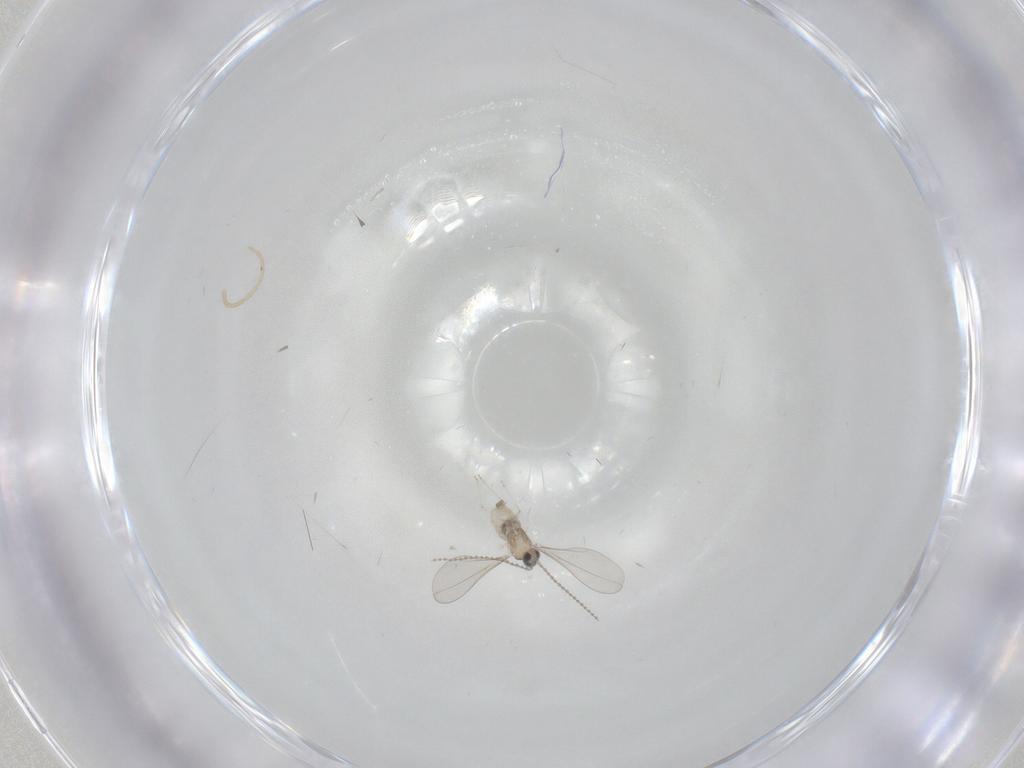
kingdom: Animalia
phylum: Arthropoda
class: Insecta
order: Diptera
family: Cecidomyiidae
